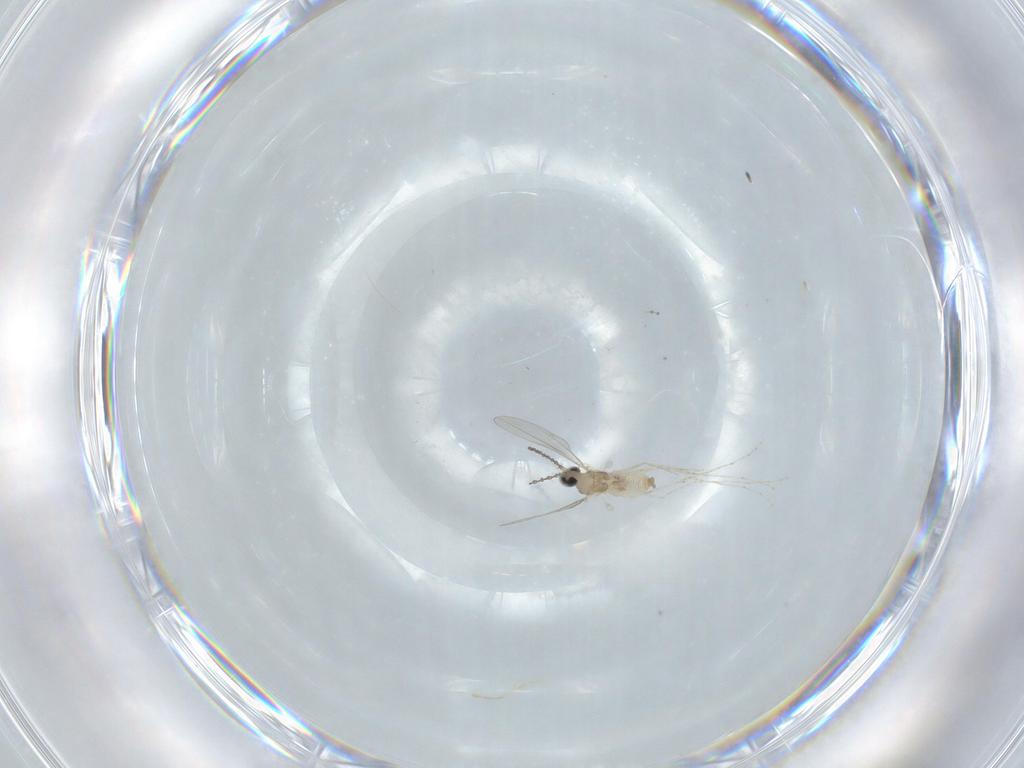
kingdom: Animalia
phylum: Arthropoda
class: Insecta
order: Diptera
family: Cecidomyiidae
